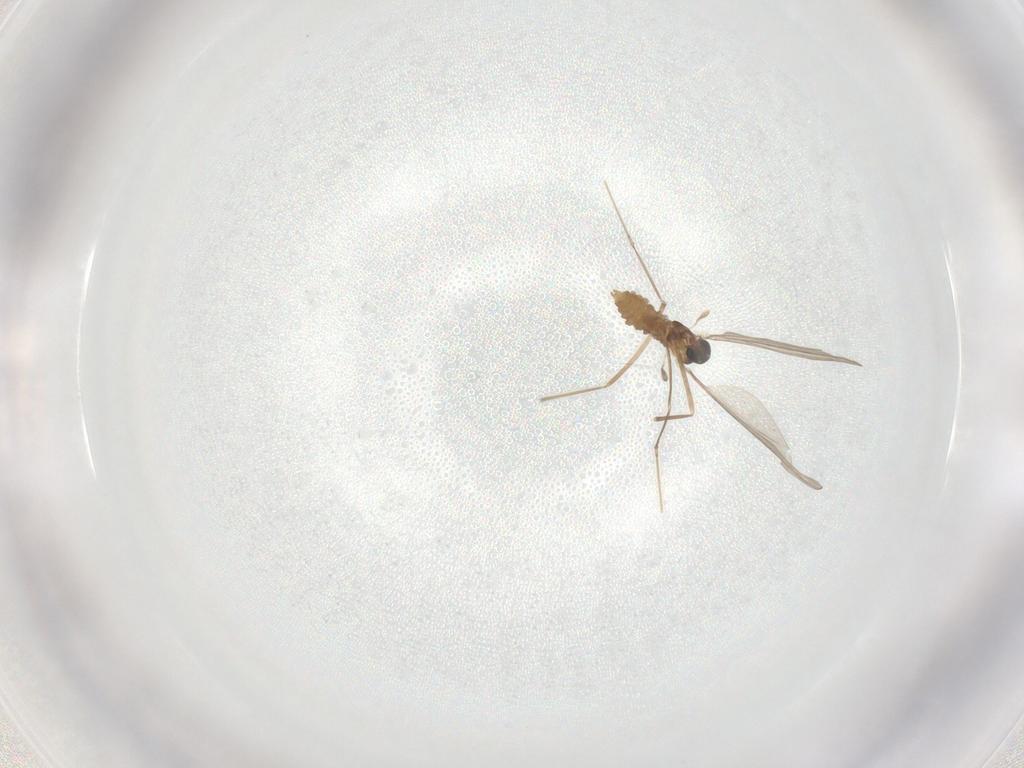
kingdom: Animalia
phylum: Arthropoda
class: Insecta
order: Diptera
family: Cecidomyiidae
